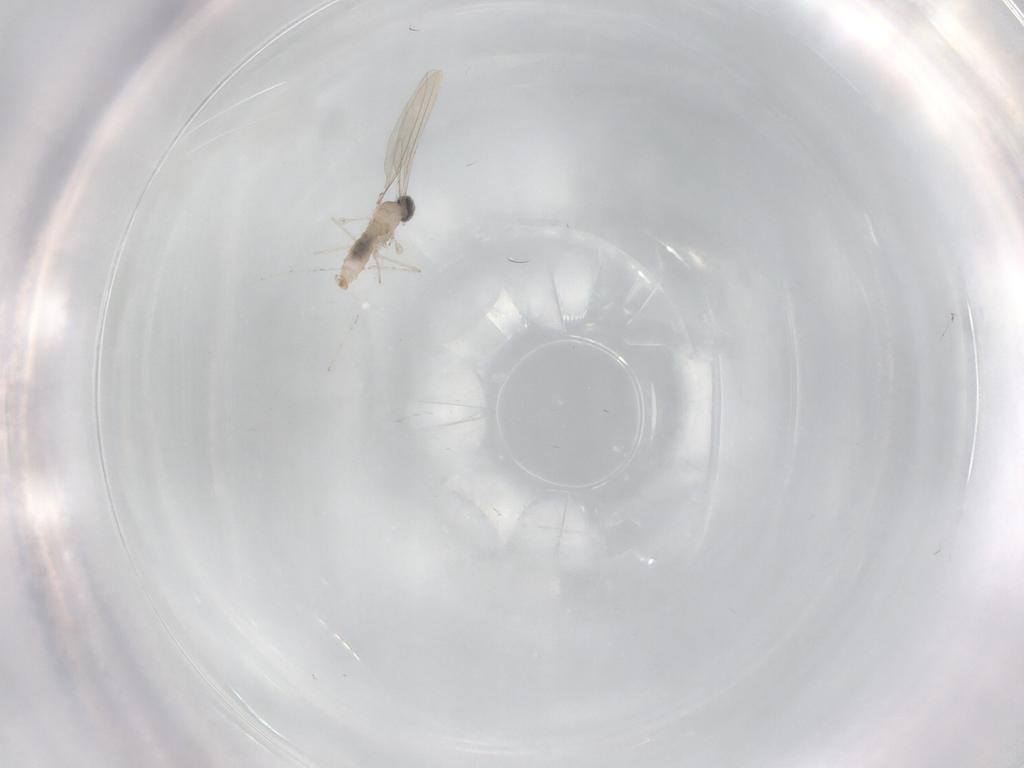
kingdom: Animalia
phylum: Arthropoda
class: Insecta
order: Diptera
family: Cecidomyiidae
